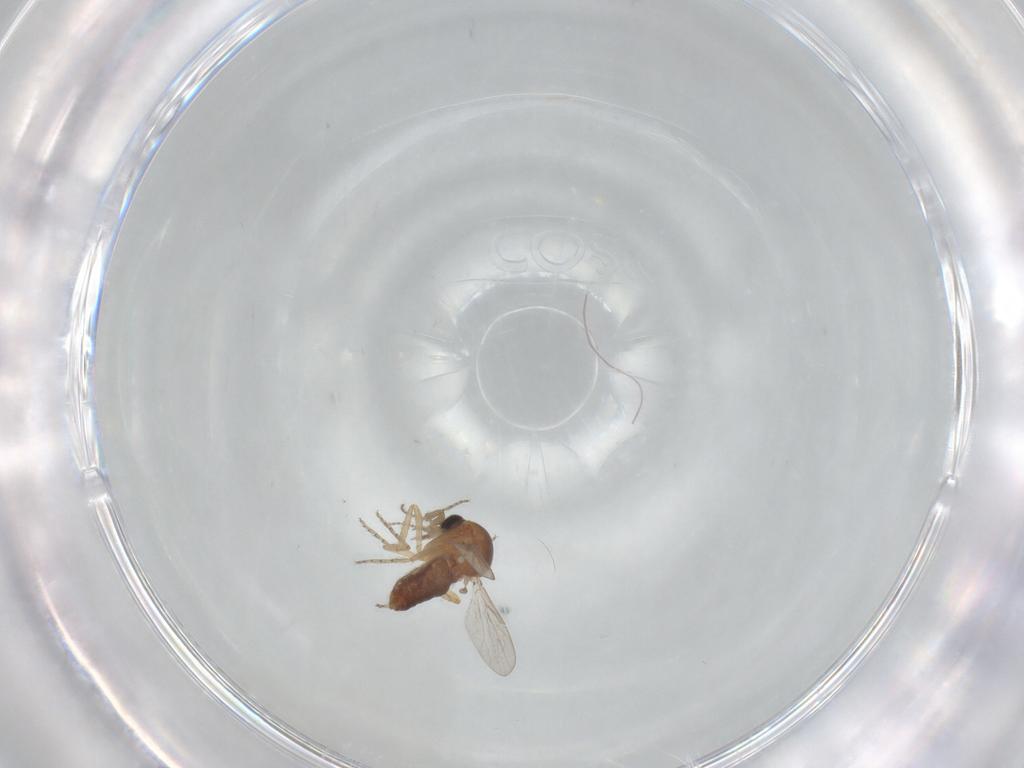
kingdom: Animalia
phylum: Arthropoda
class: Insecta
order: Diptera
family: Ceratopogonidae
